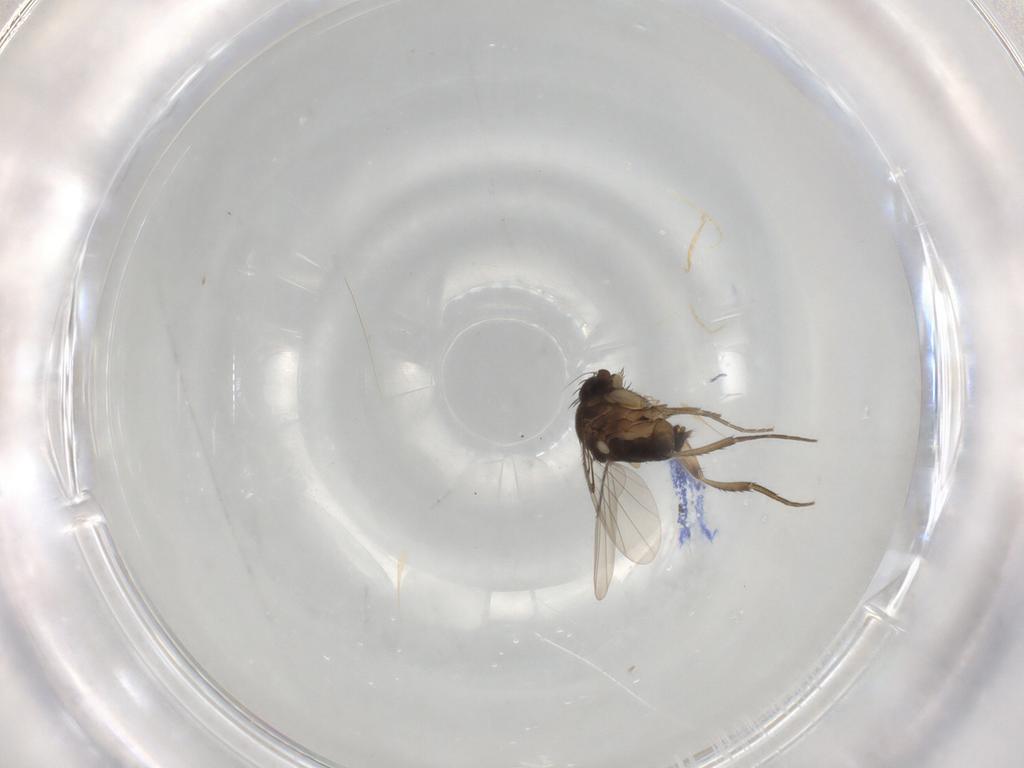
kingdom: Animalia
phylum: Arthropoda
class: Insecta
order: Diptera
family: Phoridae
